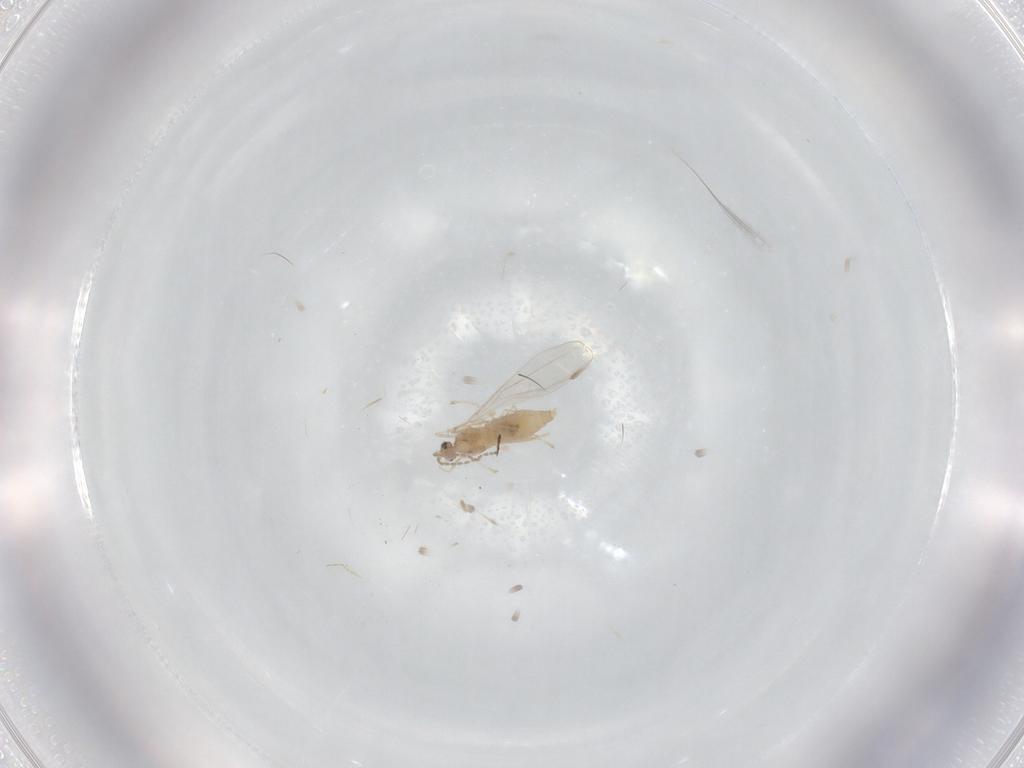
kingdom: Animalia
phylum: Arthropoda
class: Insecta
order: Diptera
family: Cecidomyiidae
